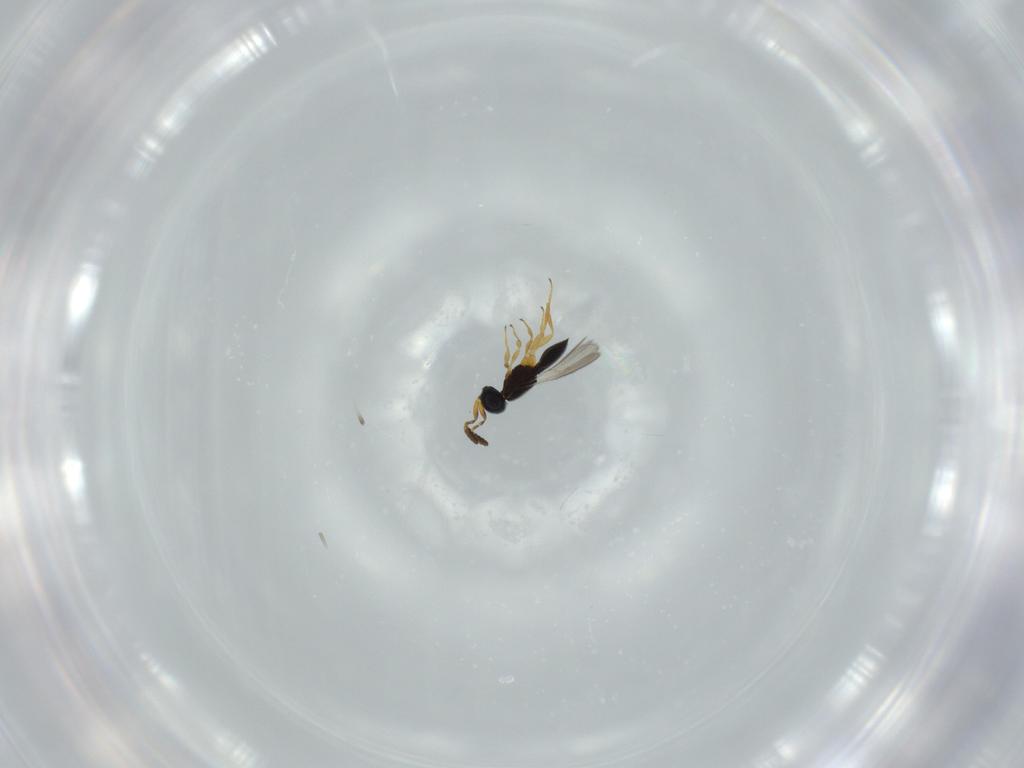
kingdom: Animalia
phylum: Arthropoda
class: Insecta
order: Hymenoptera
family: Scelionidae
